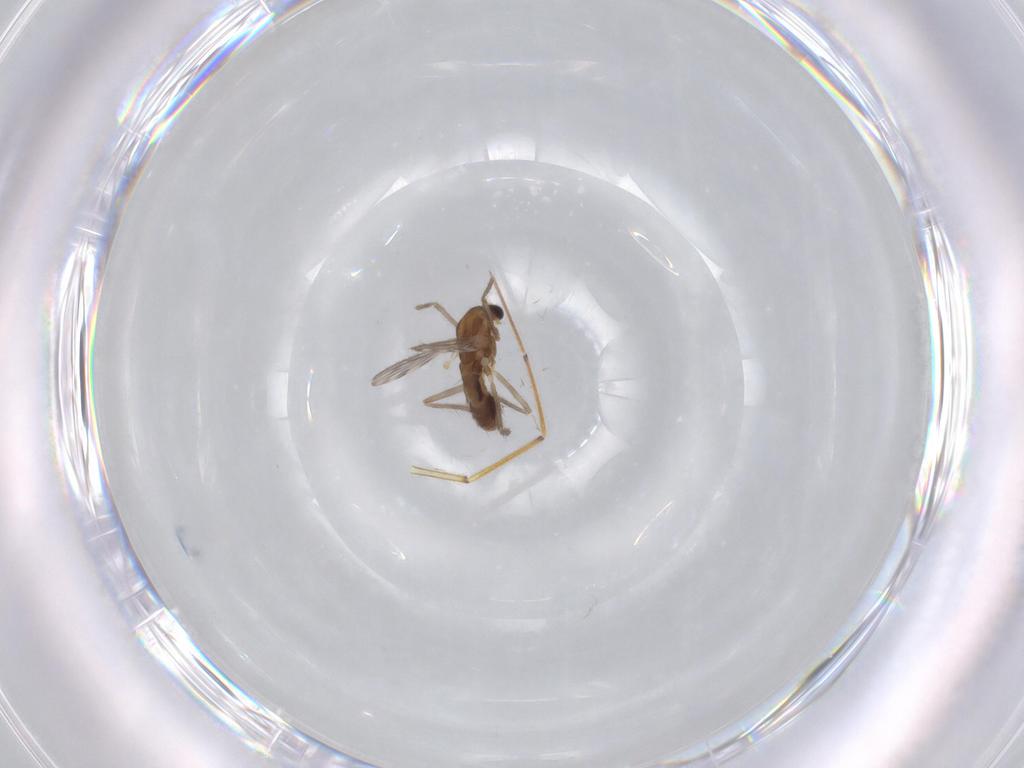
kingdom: Animalia
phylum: Arthropoda
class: Insecta
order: Diptera
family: Chironomidae
